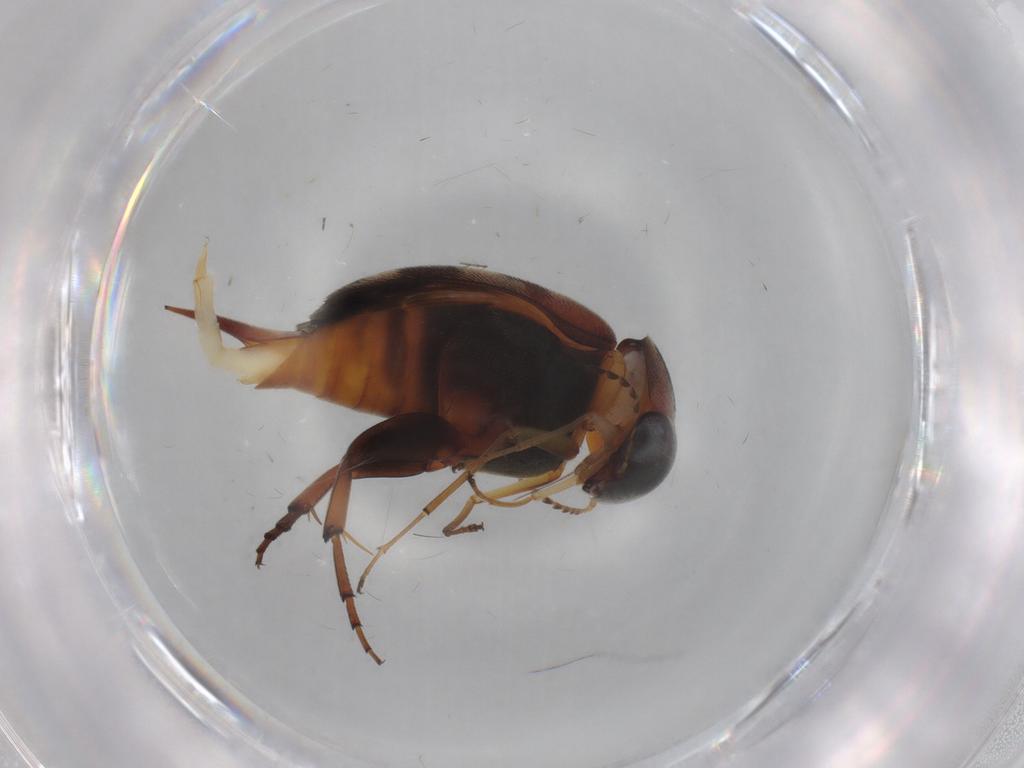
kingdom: Animalia
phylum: Arthropoda
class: Insecta
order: Coleoptera
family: Mordellidae
